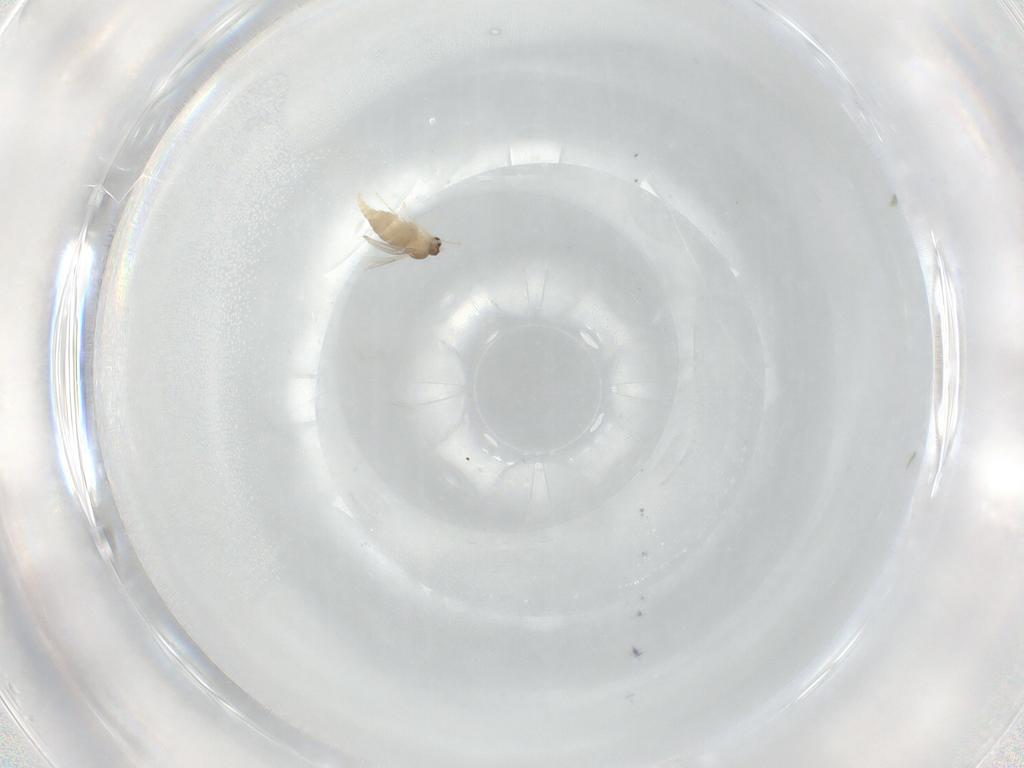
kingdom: Animalia
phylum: Arthropoda
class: Insecta
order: Diptera
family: Cecidomyiidae
